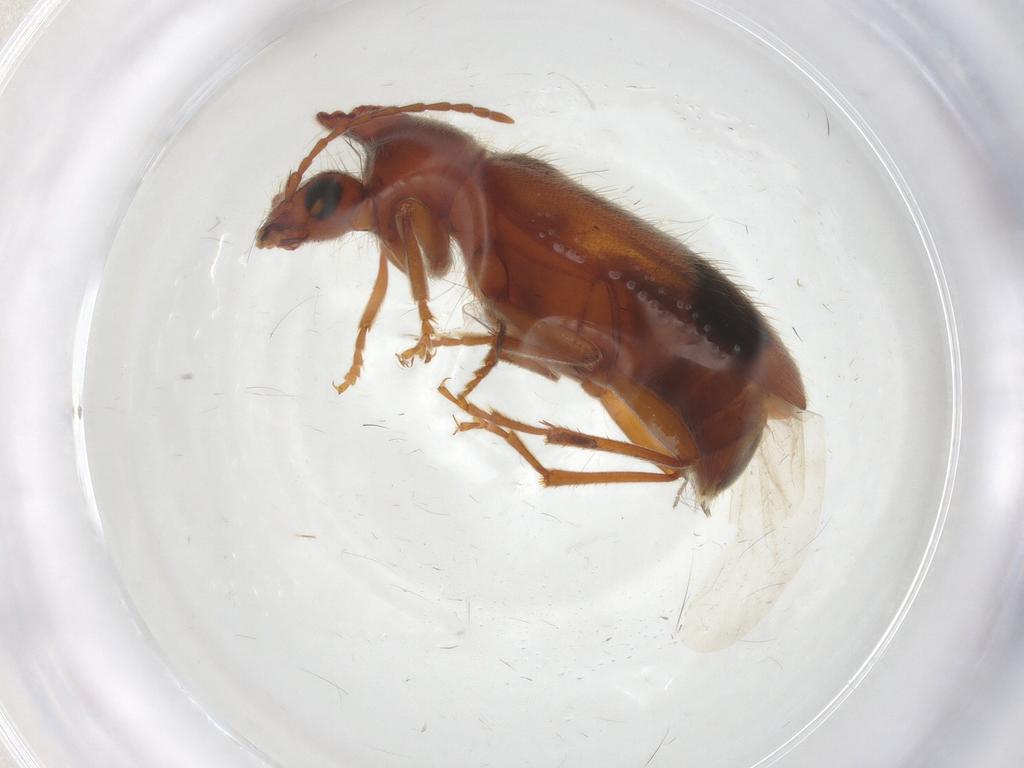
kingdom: Animalia
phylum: Arthropoda
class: Insecta
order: Coleoptera
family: Anthicidae
